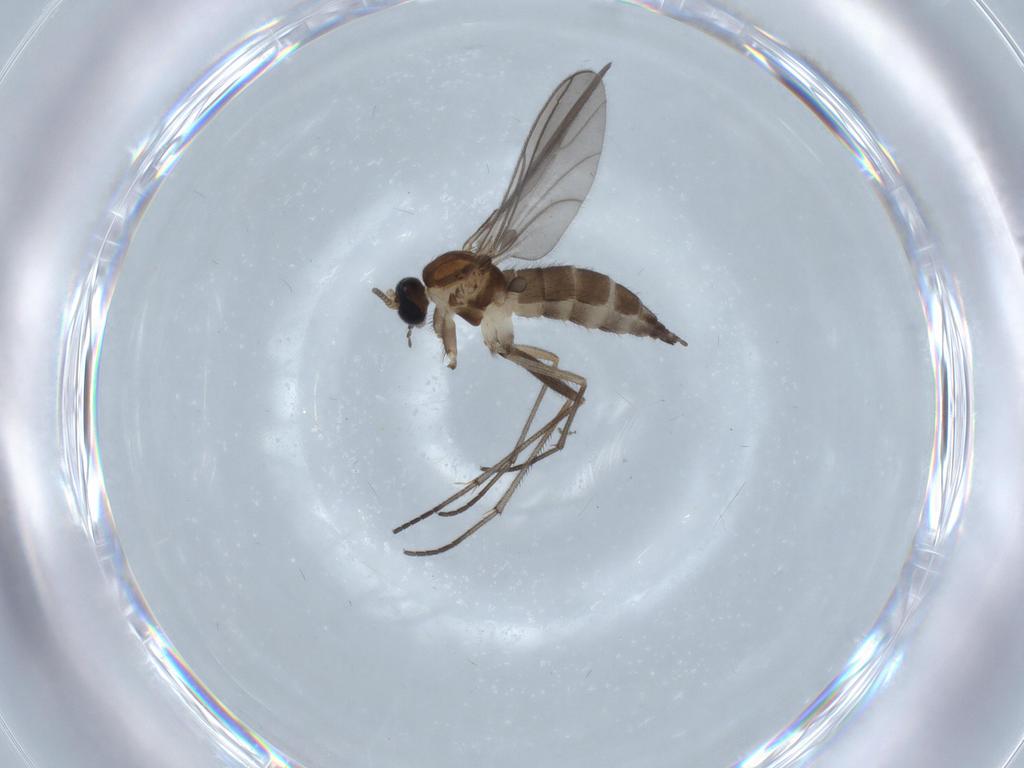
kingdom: Animalia
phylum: Arthropoda
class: Insecta
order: Diptera
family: Sciaridae
